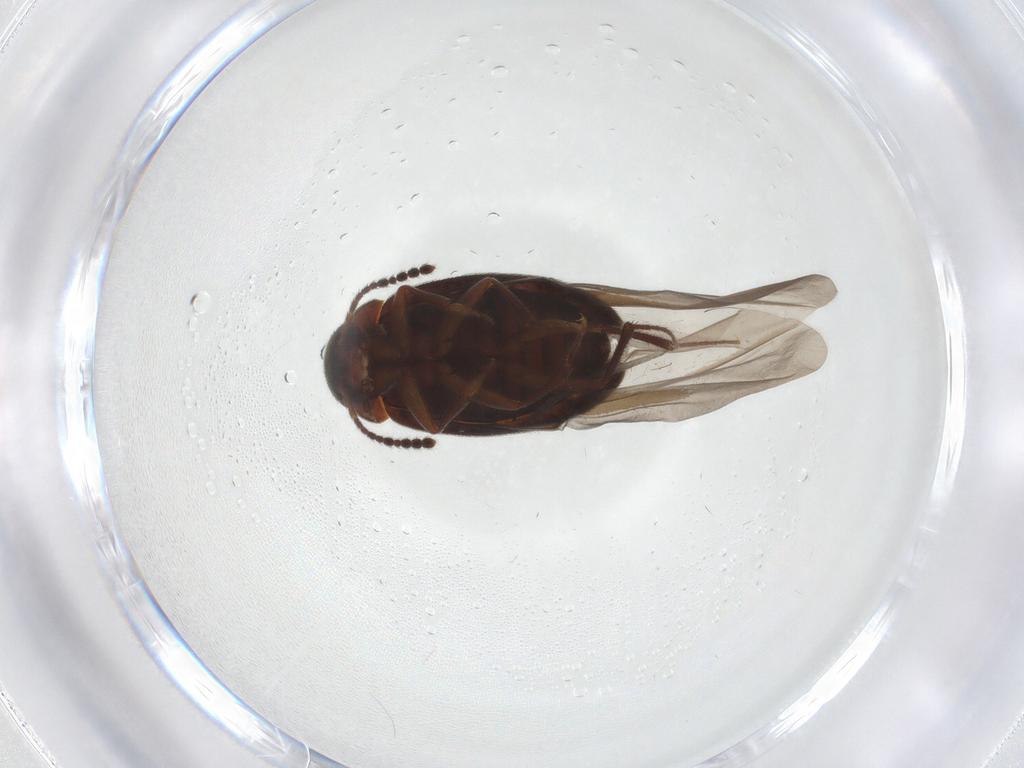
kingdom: Animalia
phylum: Arthropoda
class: Insecta
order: Coleoptera
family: Leiodidae
